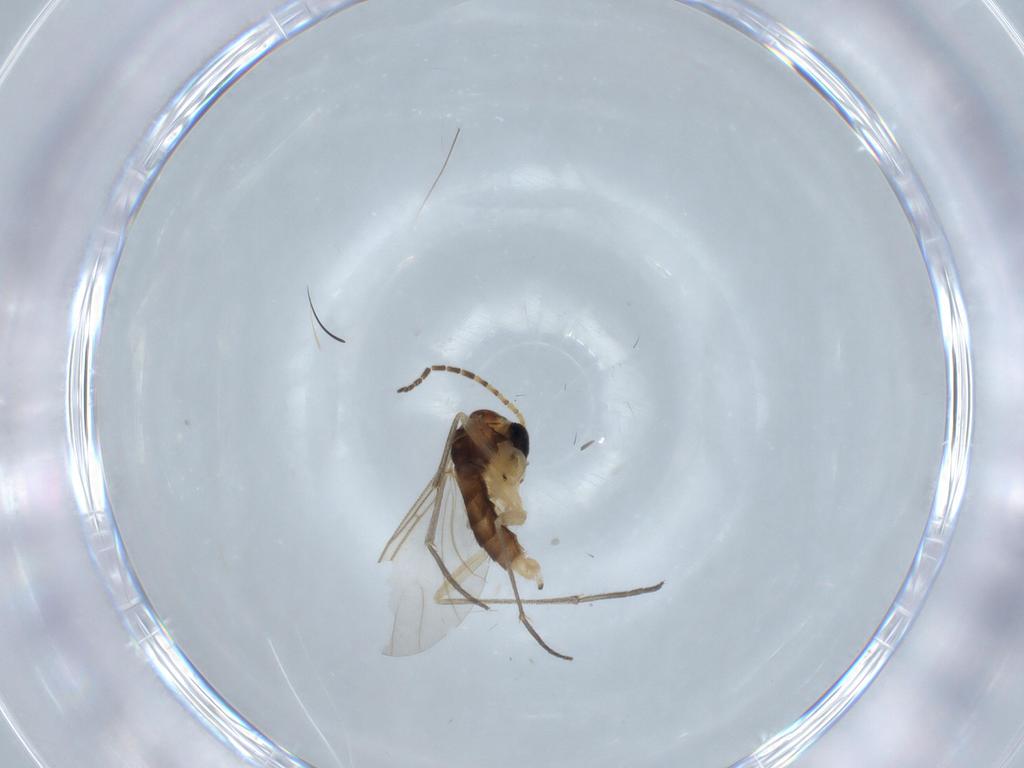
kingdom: Animalia
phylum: Arthropoda
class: Insecta
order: Diptera
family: Sciaridae
